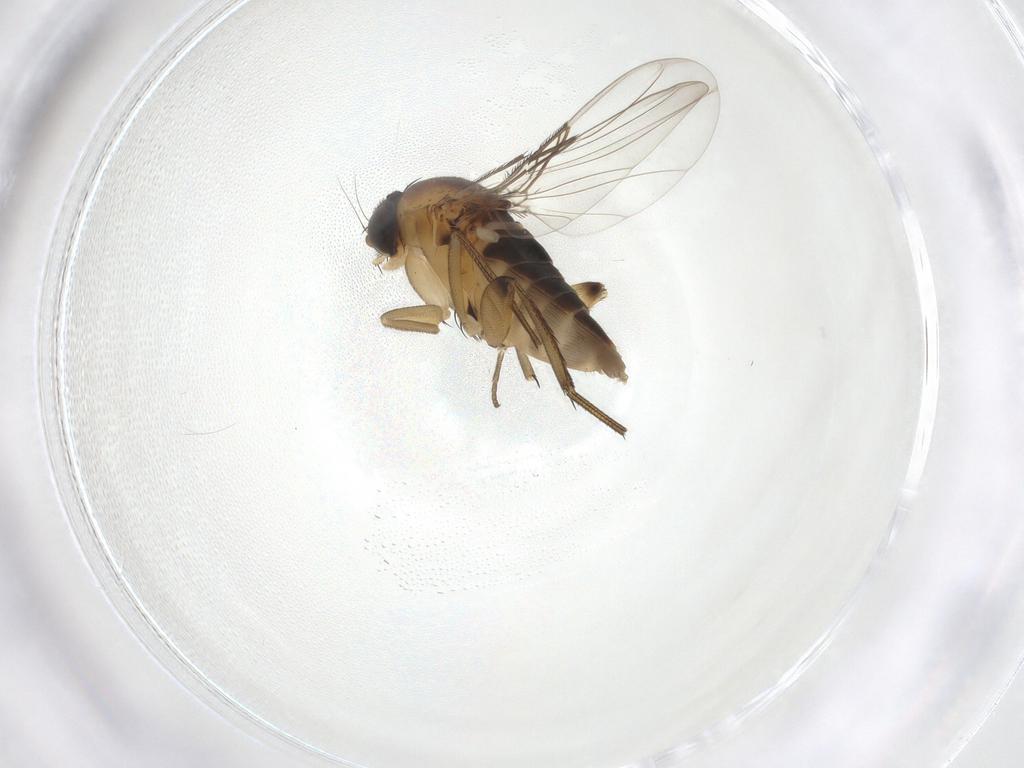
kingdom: Animalia
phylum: Arthropoda
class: Insecta
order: Diptera
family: Phoridae
